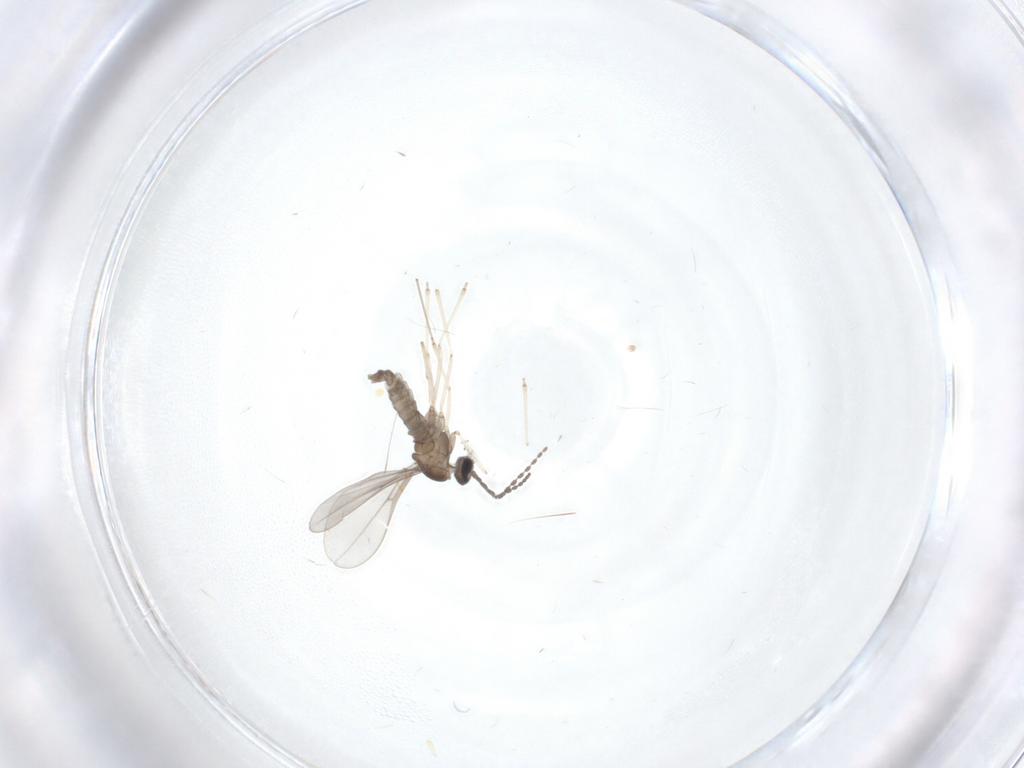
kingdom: Animalia
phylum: Arthropoda
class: Insecta
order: Diptera
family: Cecidomyiidae
